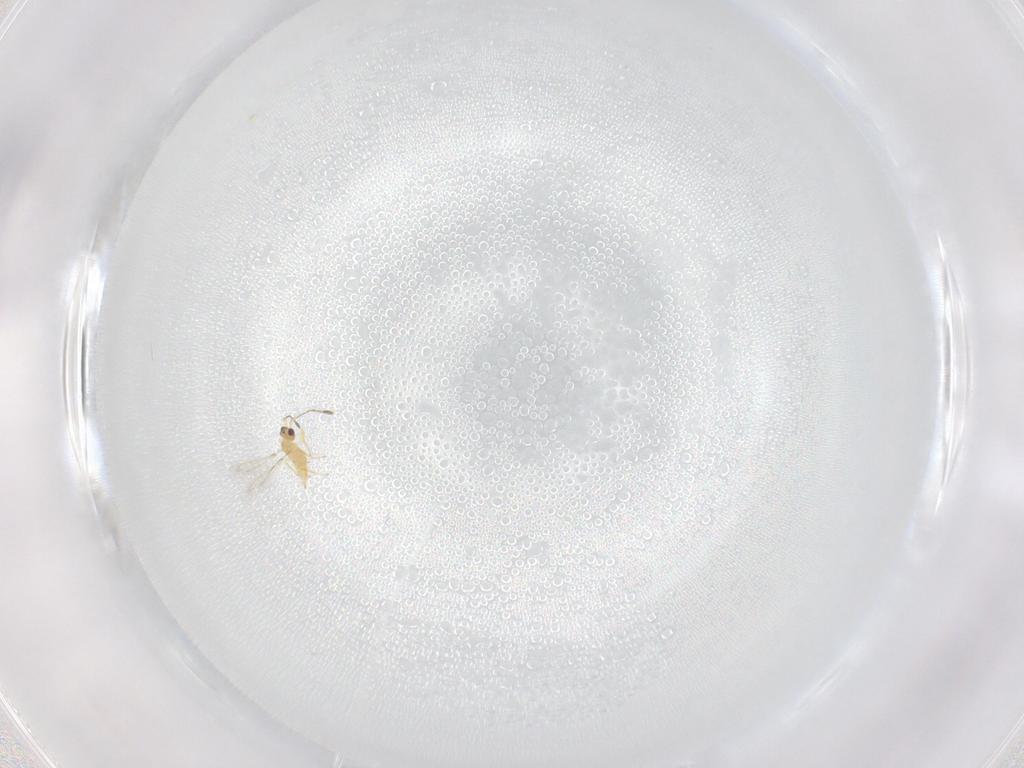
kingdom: Animalia
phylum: Arthropoda
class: Insecta
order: Hymenoptera
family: Mymaridae
